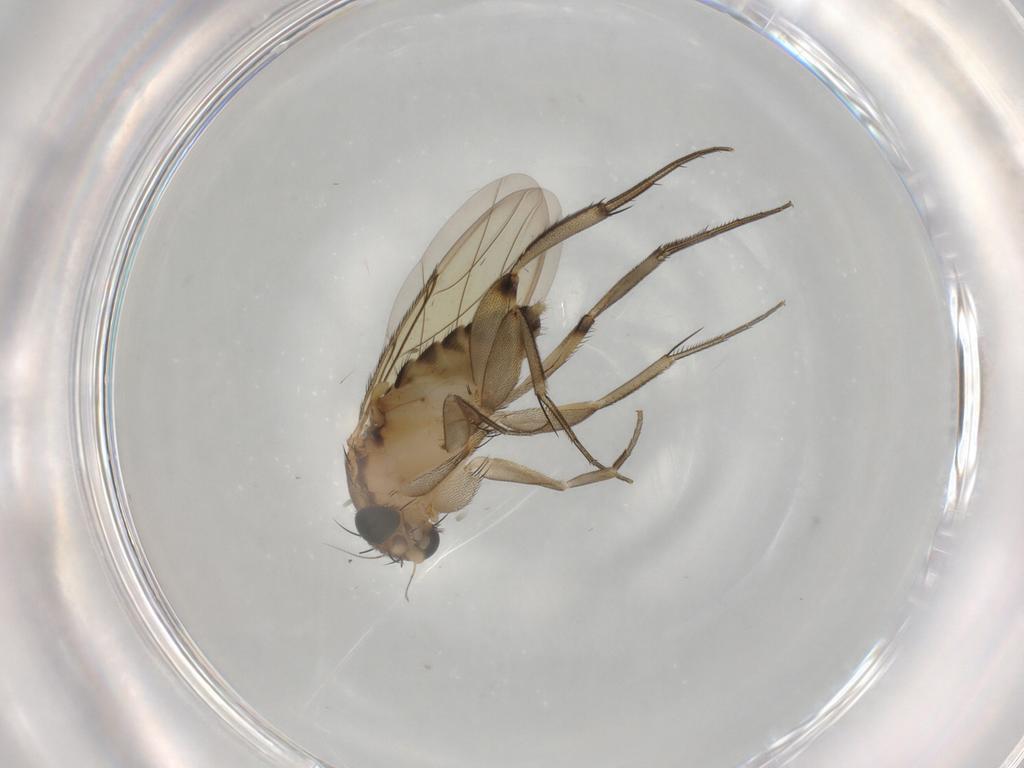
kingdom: Animalia
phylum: Arthropoda
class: Insecta
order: Diptera
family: Phoridae
